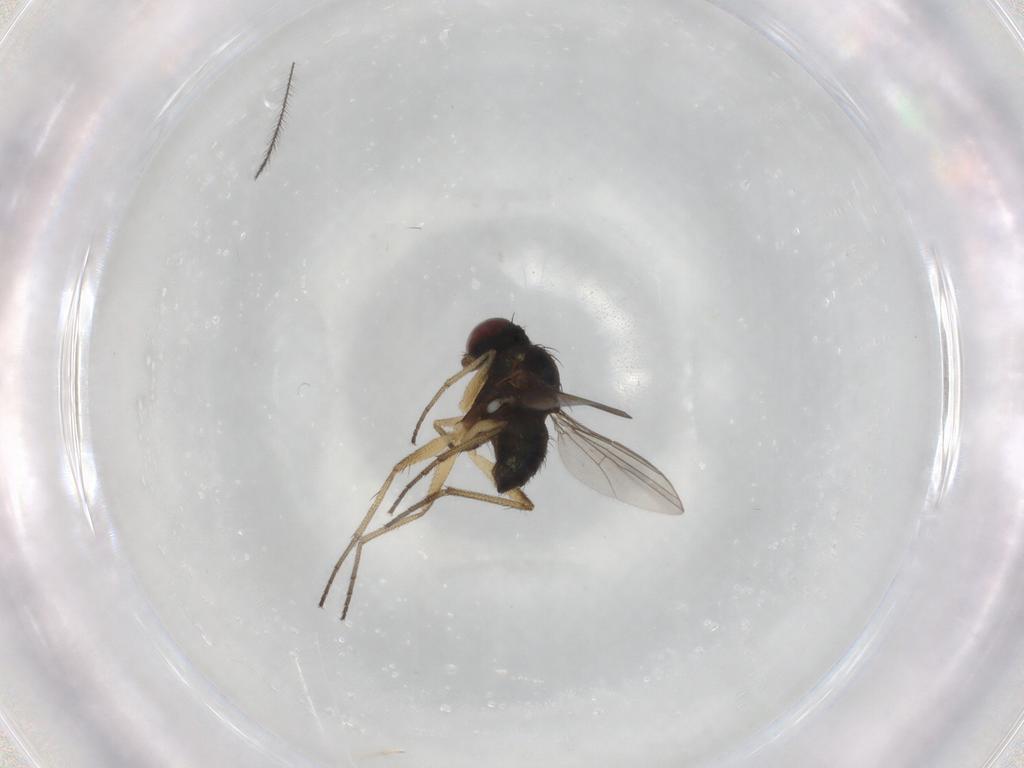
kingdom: Animalia
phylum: Arthropoda
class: Insecta
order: Diptera
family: Dolichopodidae
